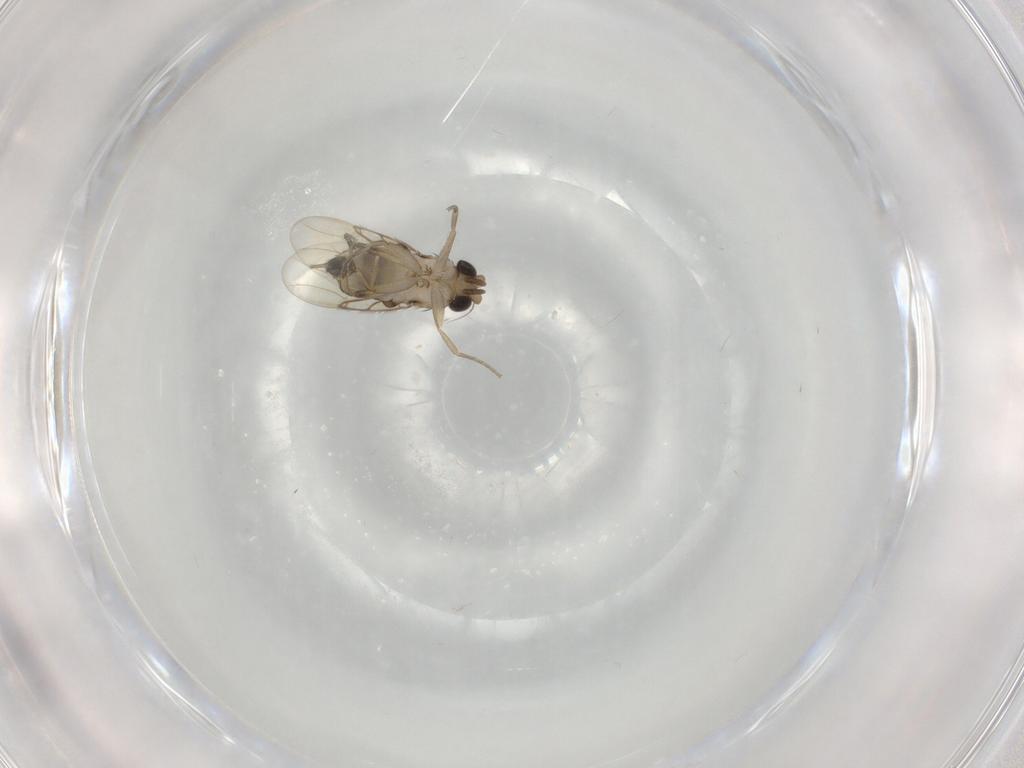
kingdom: Animalia
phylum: Arthropoda
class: Insecta
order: Diptera
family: Phoridae
